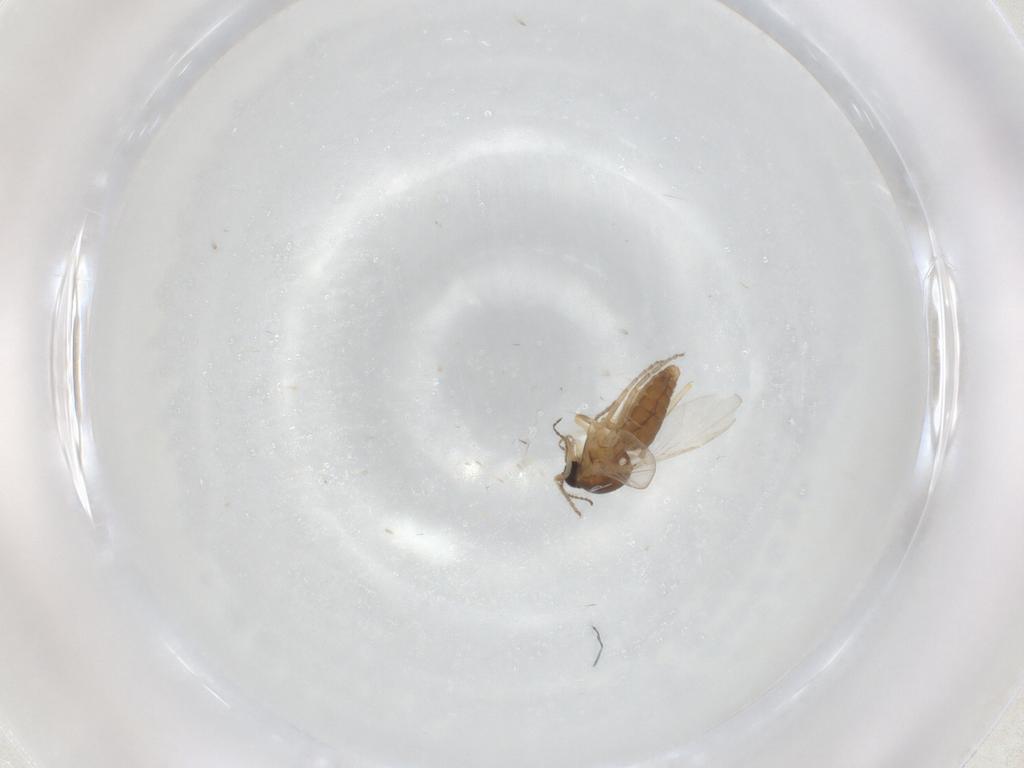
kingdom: Animalia
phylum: Arthropoda
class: Insecta
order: Diptera
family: Ceratopogonidae
